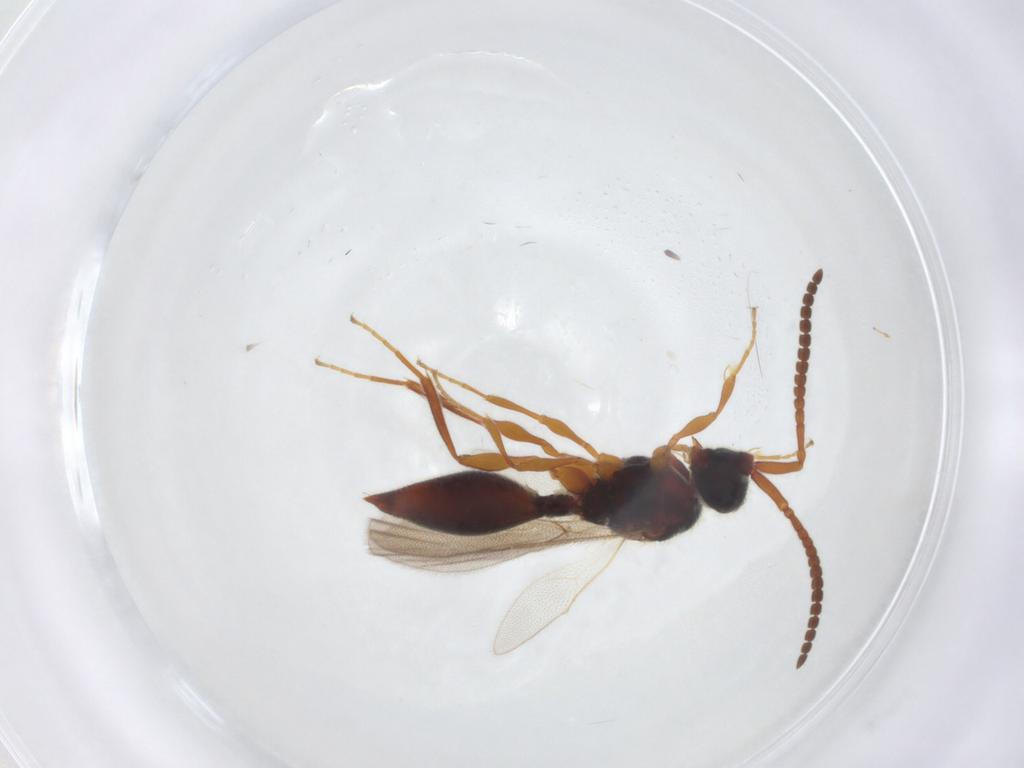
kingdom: Animalia
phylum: Arthropoda
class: Insecta
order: Hymenoptera
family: Diapriidae
